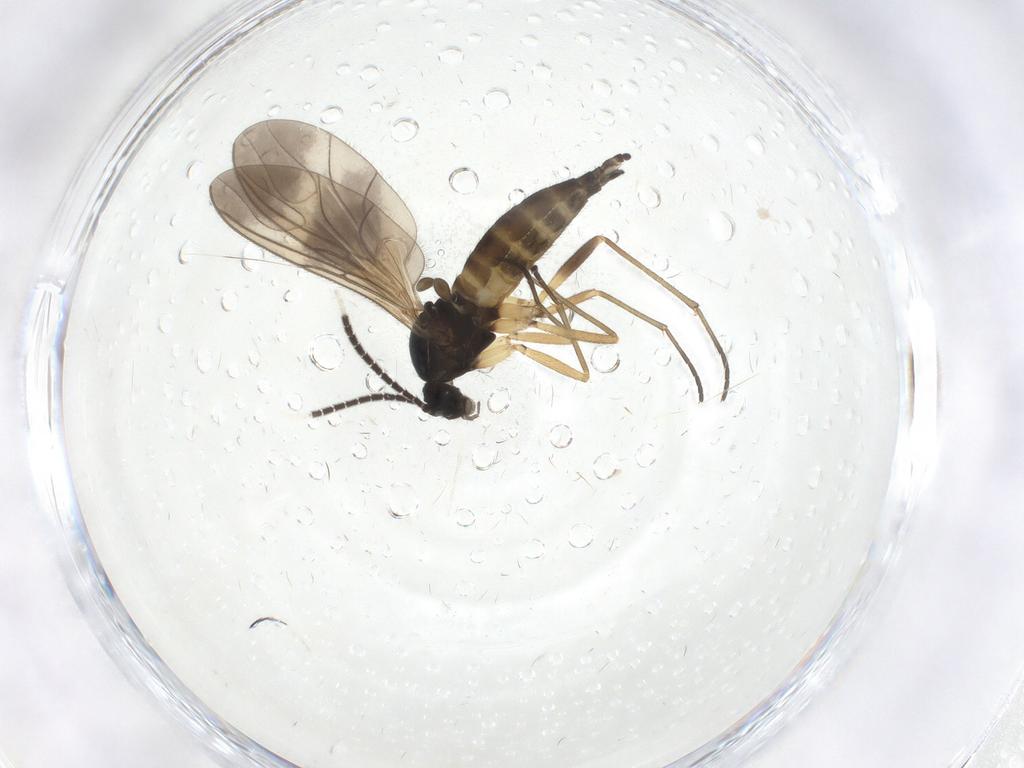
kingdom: Animalia
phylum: Arthropoda
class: Insecta
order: Diptera
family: Sciaridae
